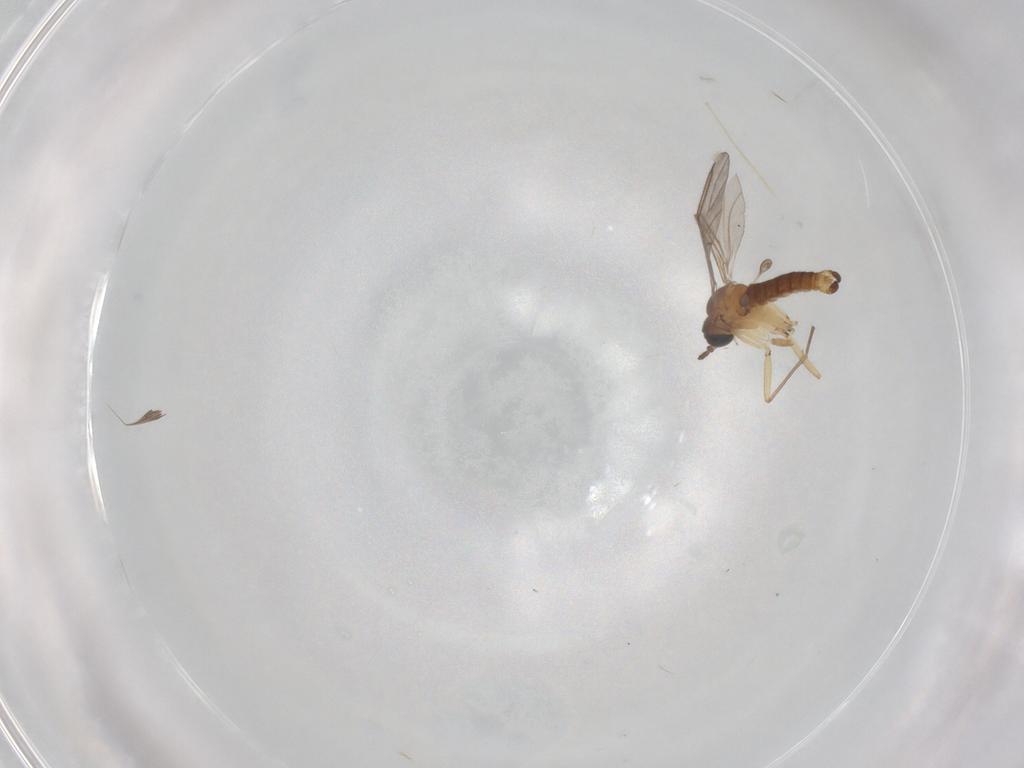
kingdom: Animalia
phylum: Arthropoda
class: Insecta
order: Diptera
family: Sciaridae
